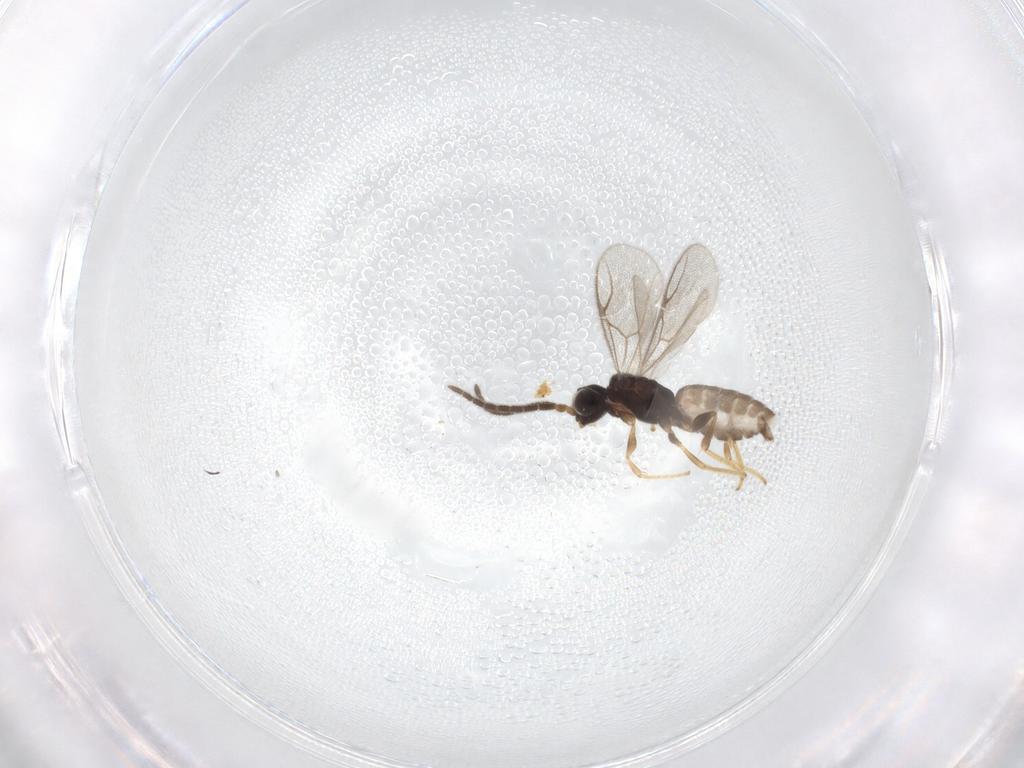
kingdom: Animalia
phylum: Arthropoda
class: Insecta
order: Hymenoptera
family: Dryinidae
